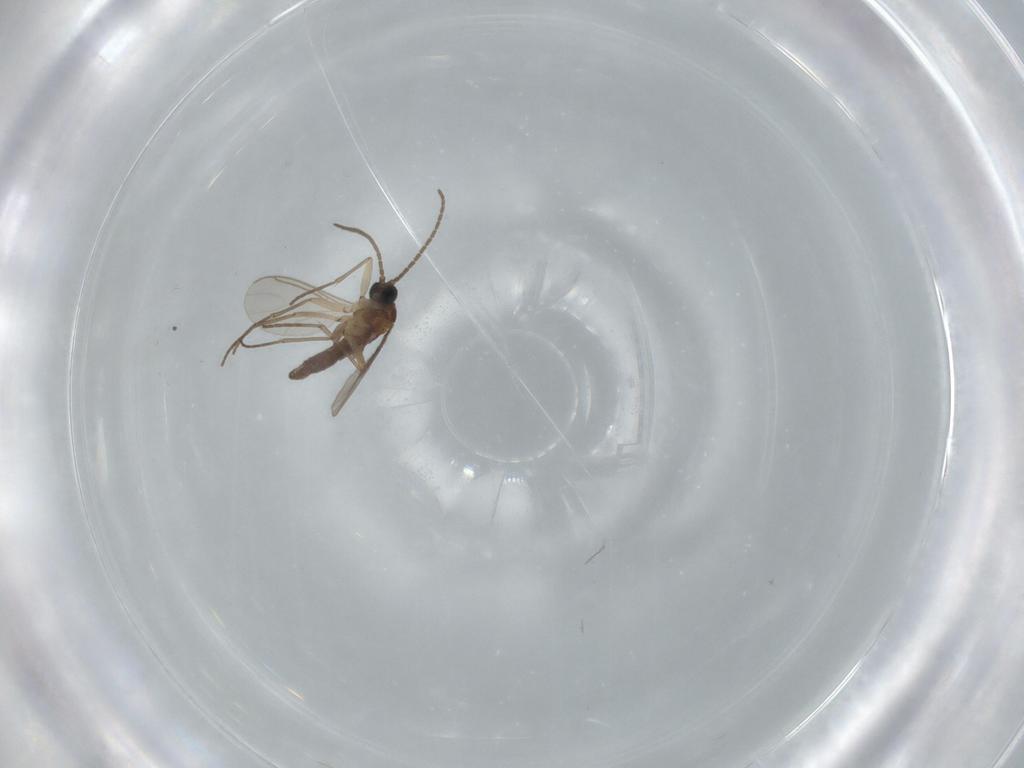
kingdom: Animalia
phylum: Arthropoda
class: Insecta
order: Diptera
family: Sciaridae
